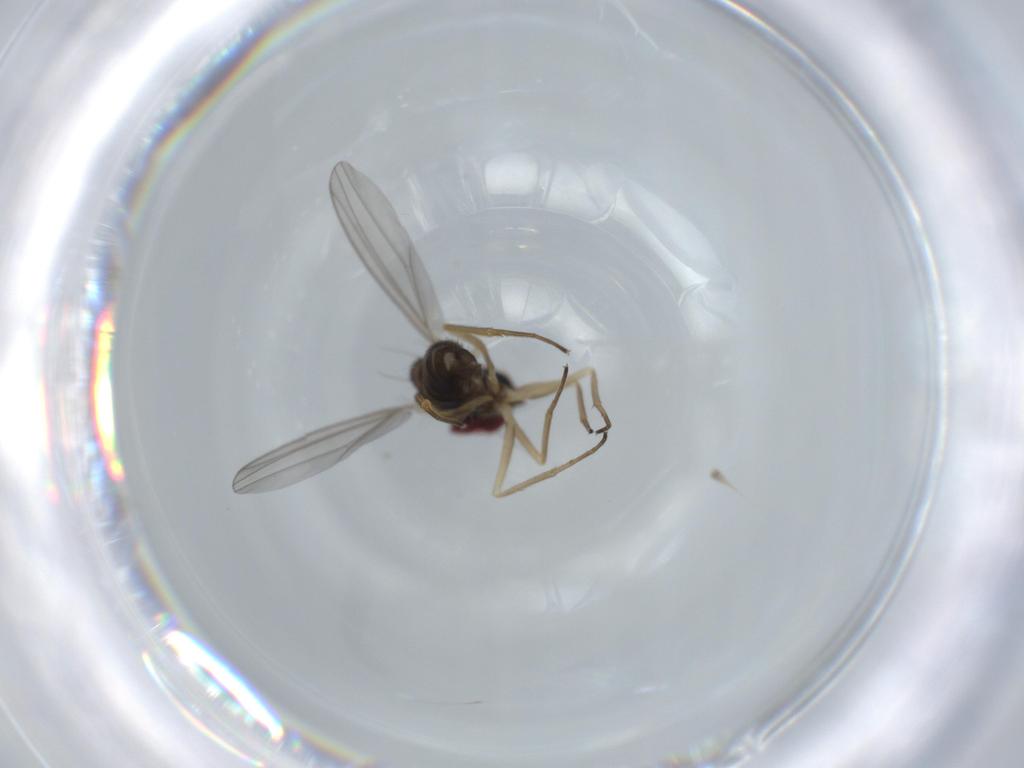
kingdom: Animalia
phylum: Arthropoda
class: Insecta
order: Diptera
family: Dolichopodidae
